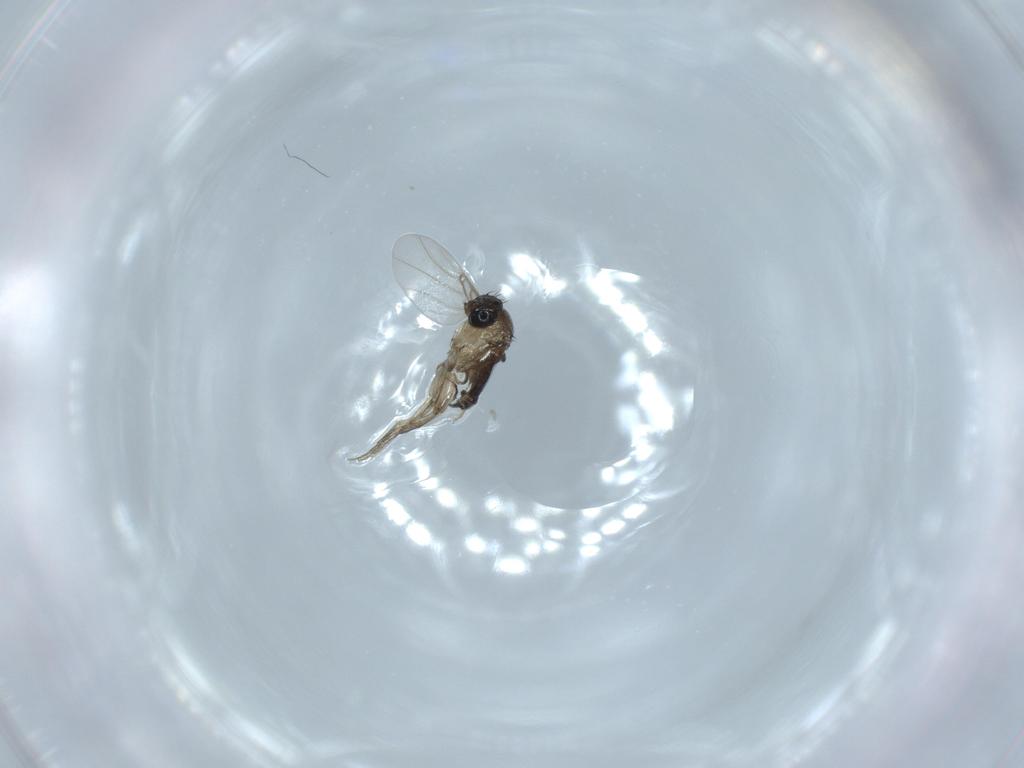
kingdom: Animalia
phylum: Arthropoda
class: Insecta
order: Diptera
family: Phoridae
